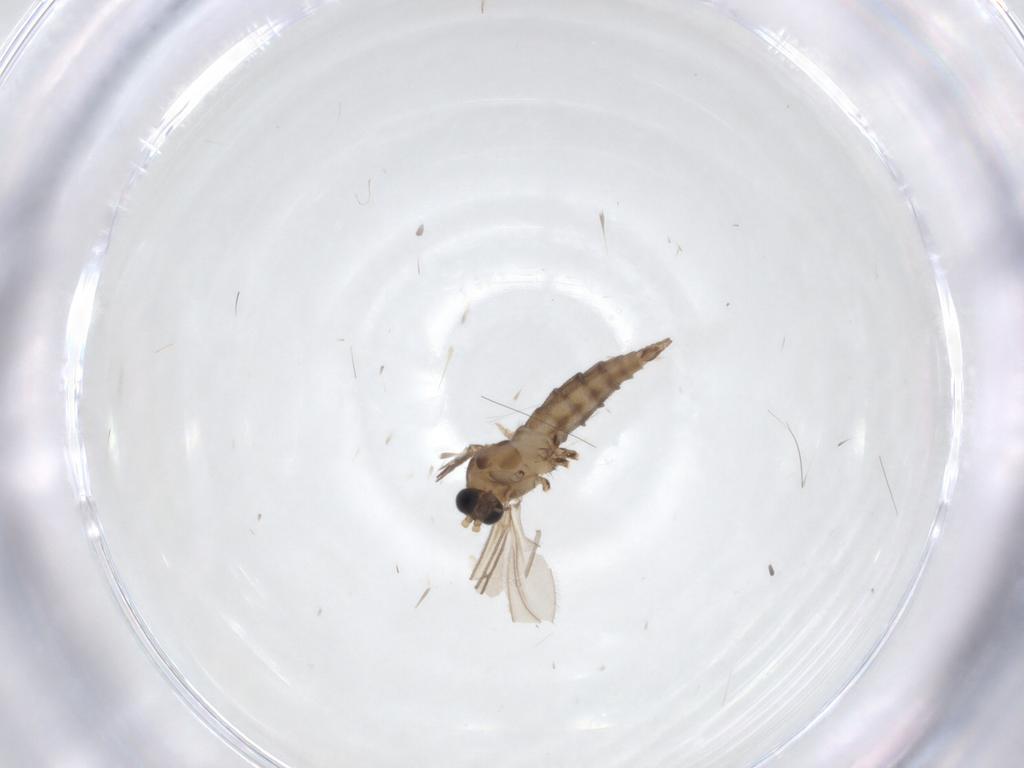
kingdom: Animalia
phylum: Arthropoda
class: Insecta
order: Diptera
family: Sciaridae
